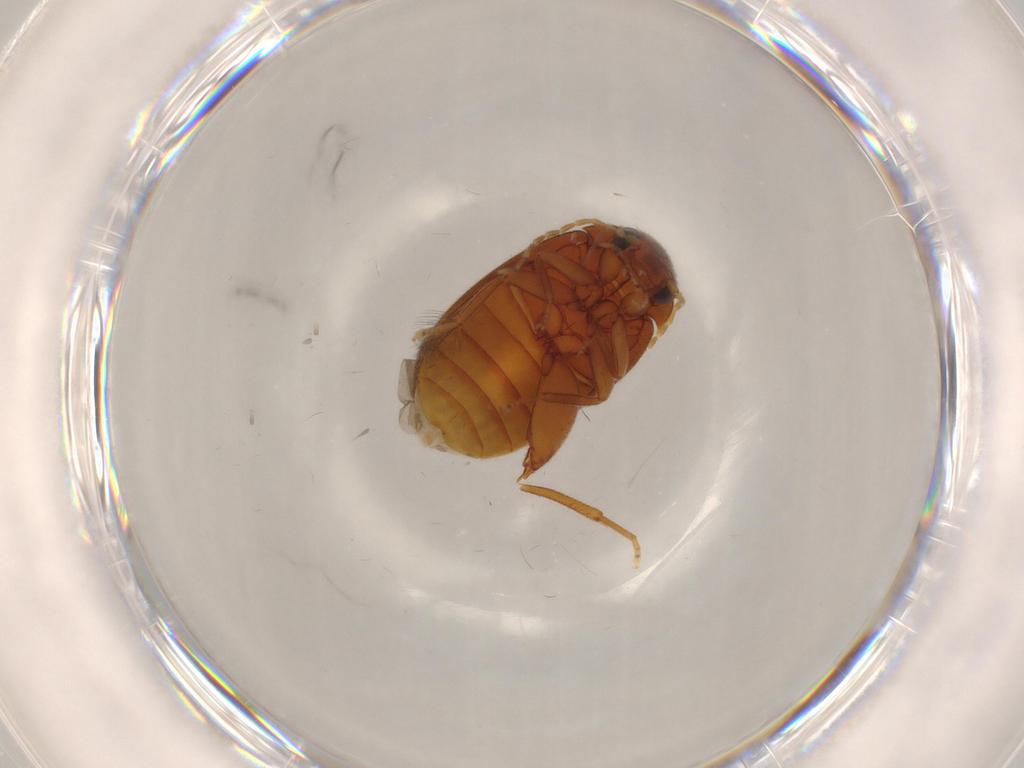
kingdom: Animalia
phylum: Arthropoda
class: Insecta
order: Coleoptera
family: Scirtidae
